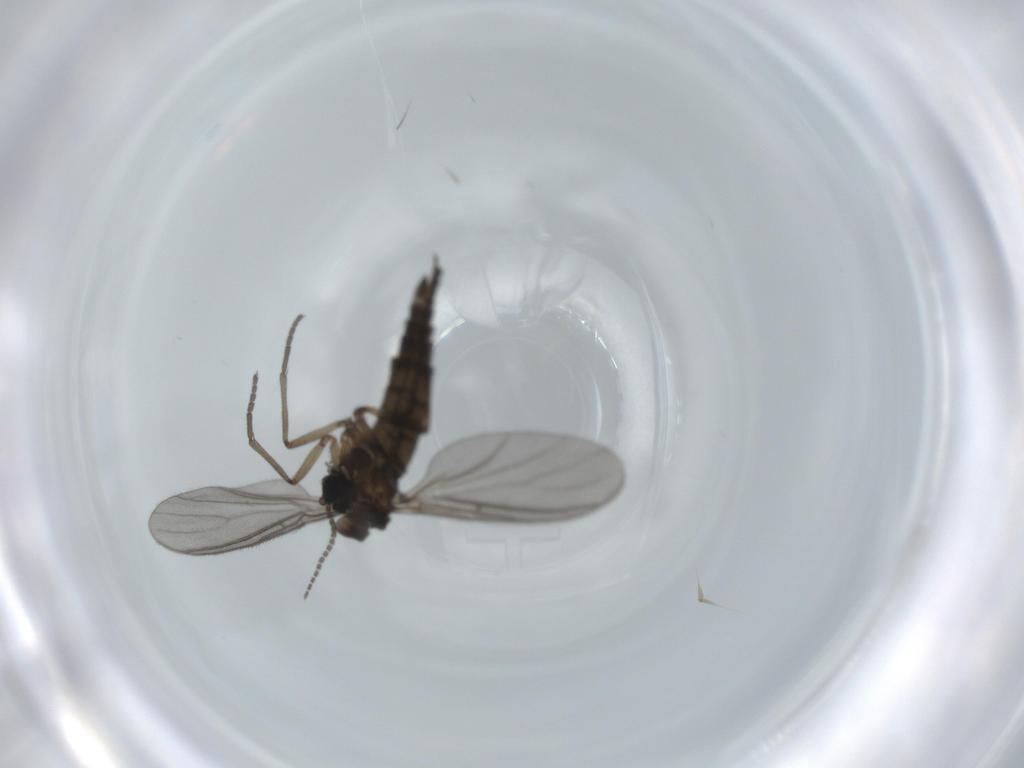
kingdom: Animalia
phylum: Arthropoda
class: Insecta
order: Diptera
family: Sciaridae
